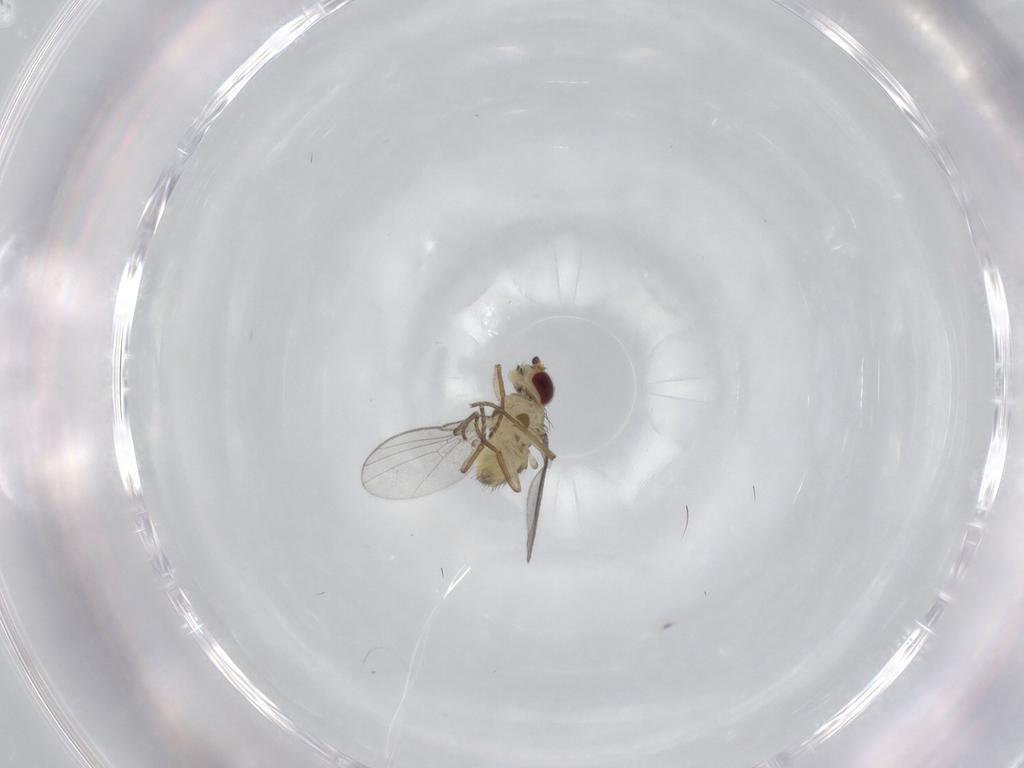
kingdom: Animalia
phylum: Arthropoda
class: Insecta
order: Diptera
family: Agromyzidae
